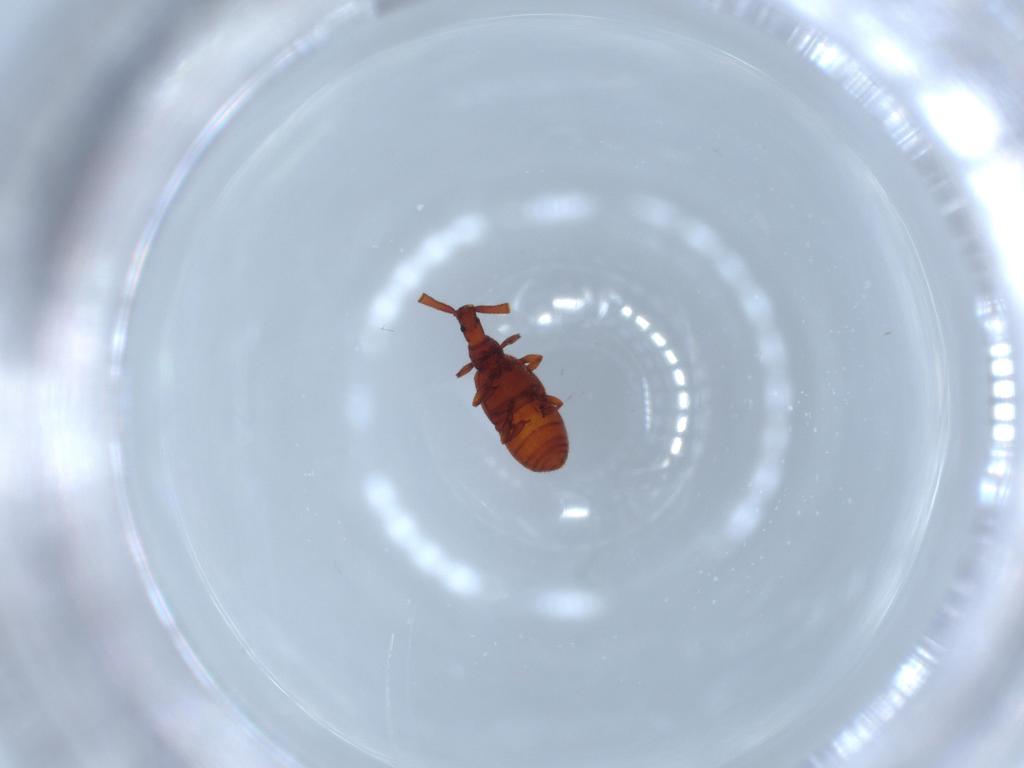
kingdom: Animalia
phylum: Arthropoda
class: Insecta
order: Coleoptera
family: Staphylinidae
